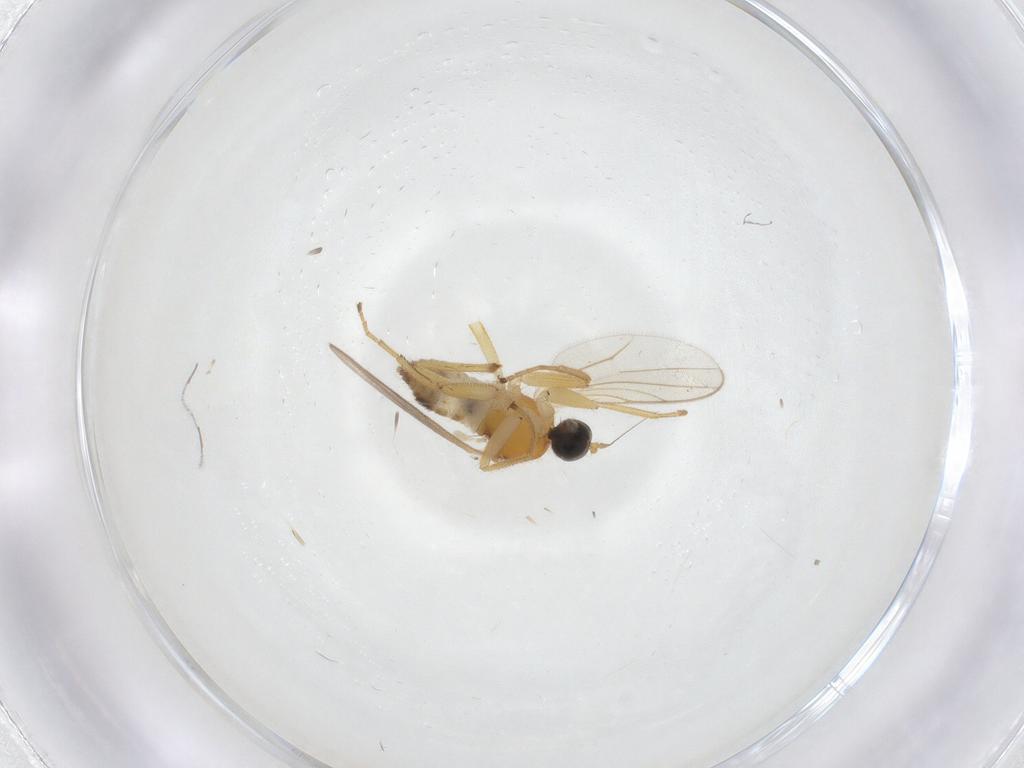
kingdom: Animalia
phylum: Arthropoda
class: Insecta
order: Diptera
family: Hybotidae
